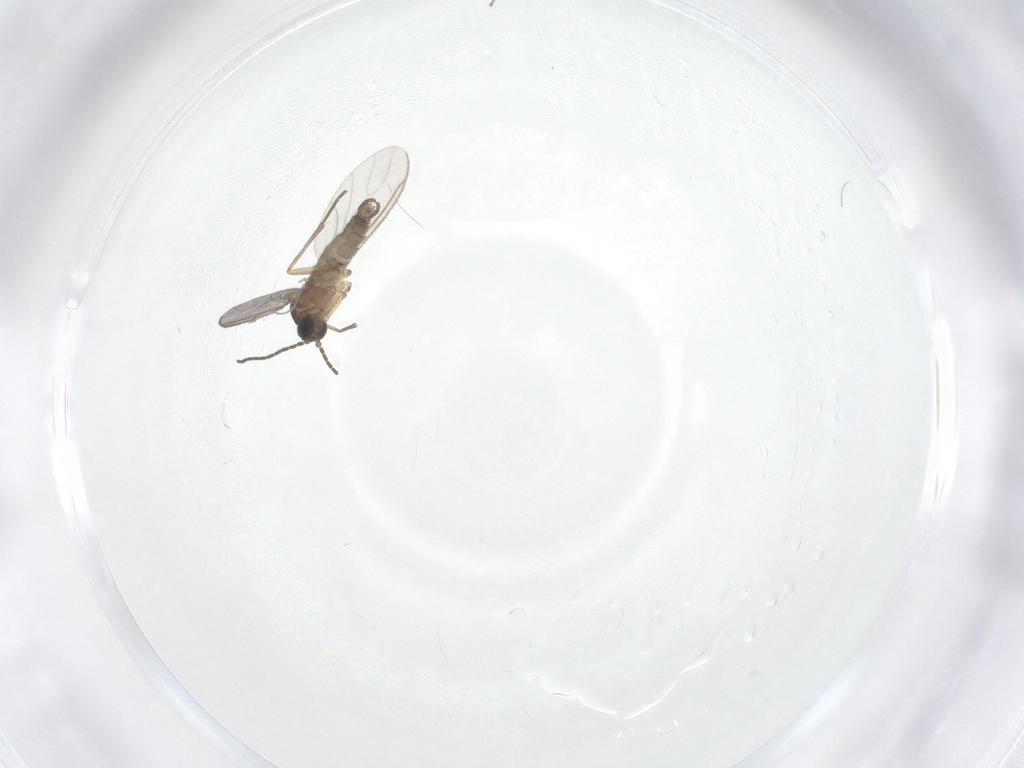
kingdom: Animalia
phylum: Arthropoda
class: Insecta
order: Diptera
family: Sciaridae
